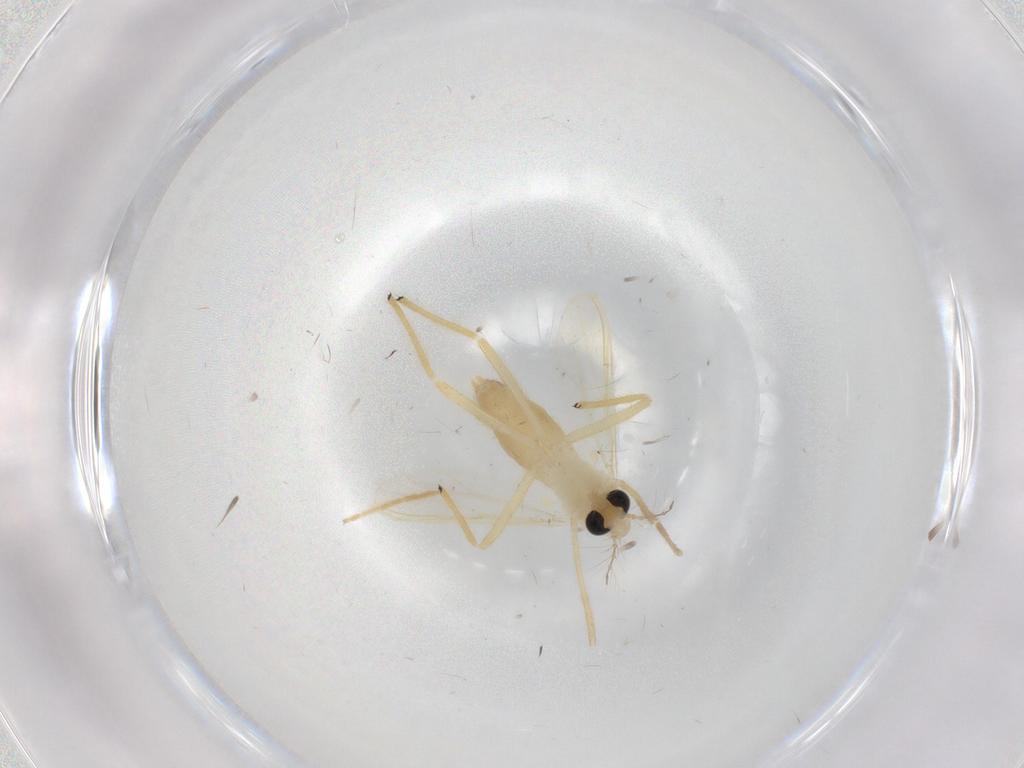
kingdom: Animalia
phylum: Arthropoda
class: Insecta
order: Diptera
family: Chironomidae
